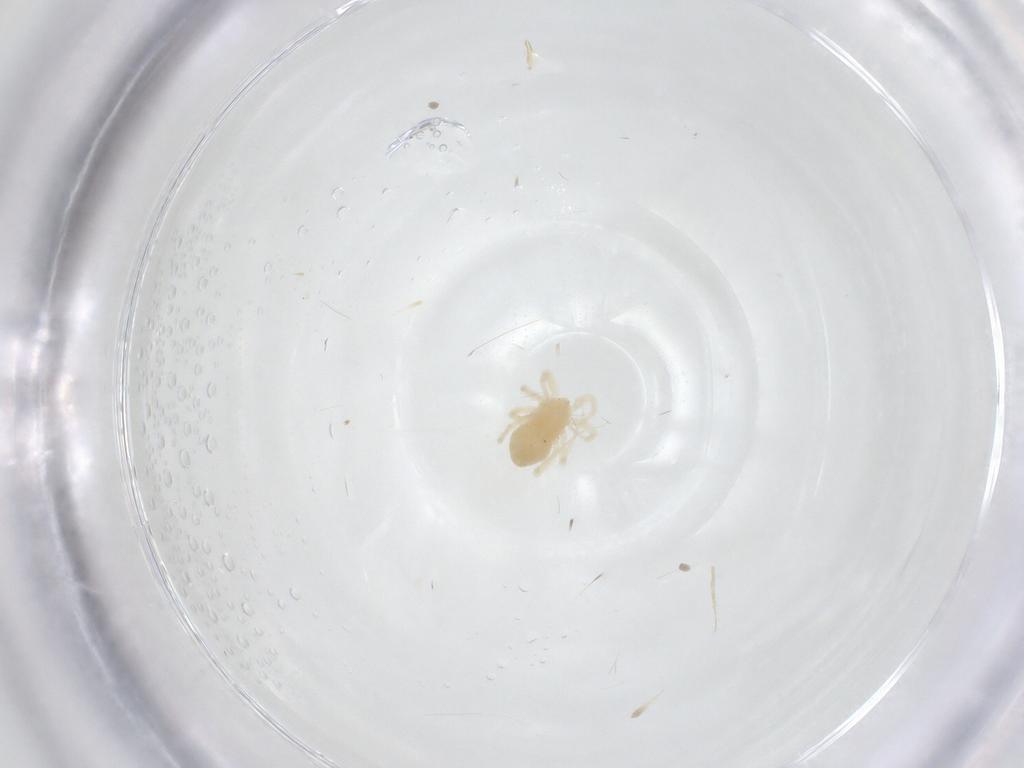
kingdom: Animalia
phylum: Arthropoda
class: Arachnida
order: Trombidiformes
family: Anystidae
